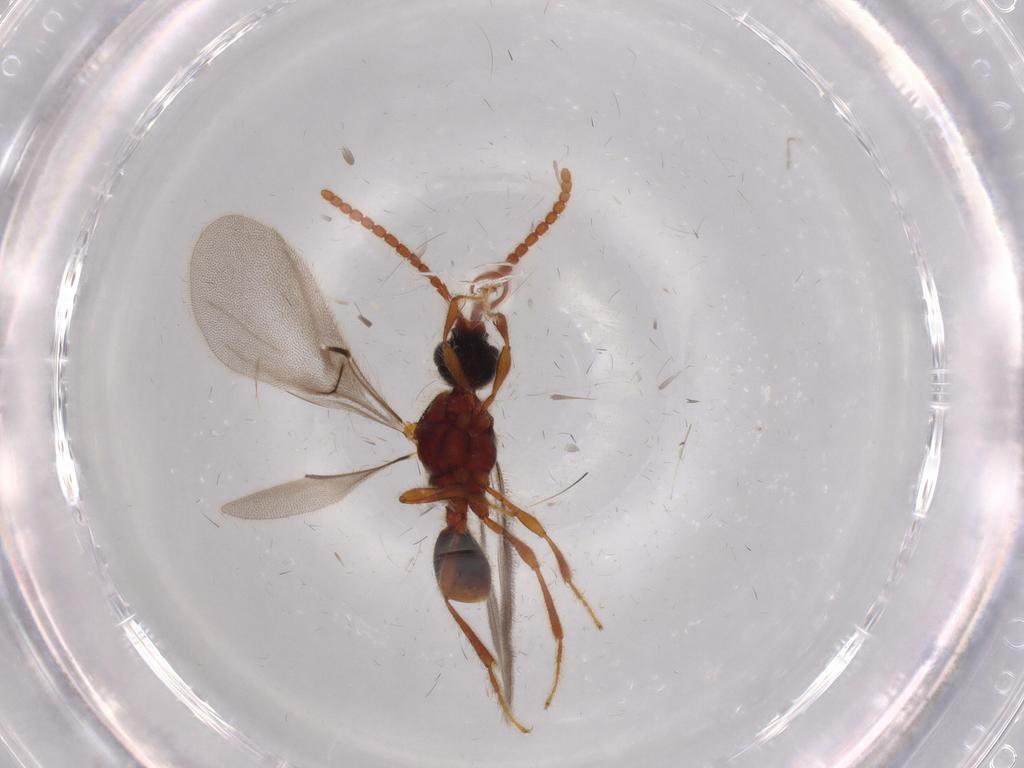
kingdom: Animalia
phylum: Arthropoda
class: Insecta
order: Hymenoptera
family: Diapriidae
